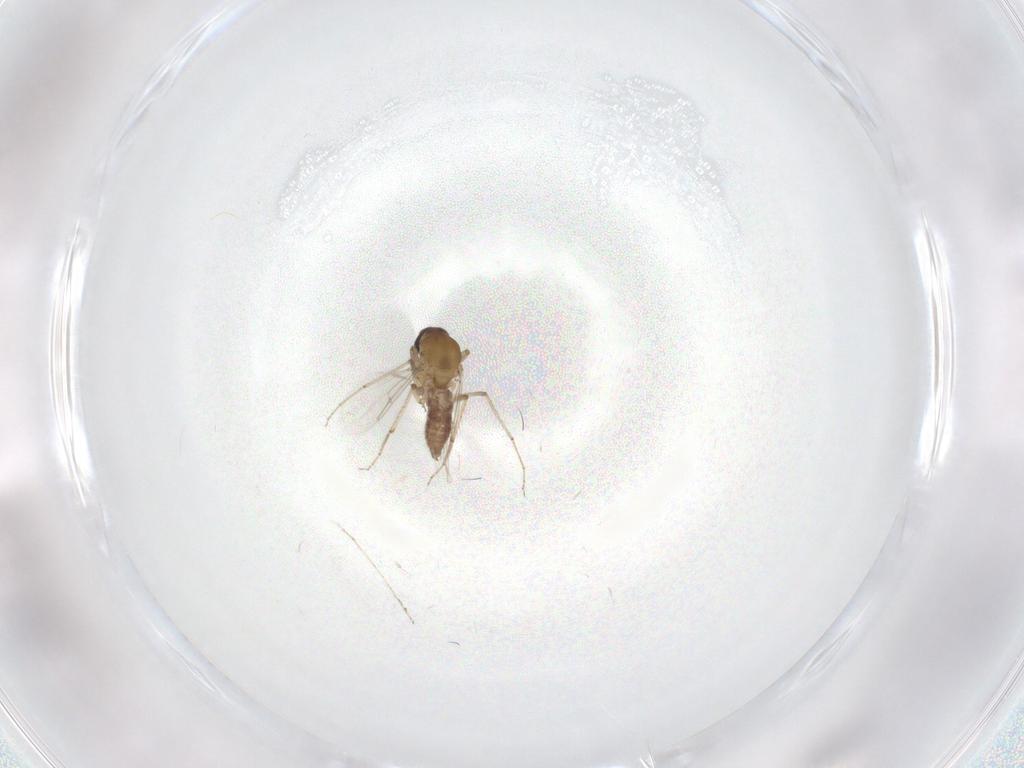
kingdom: Animalia
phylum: Arthropoda
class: Insecta
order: Diptera
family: Ceratopogonidae
